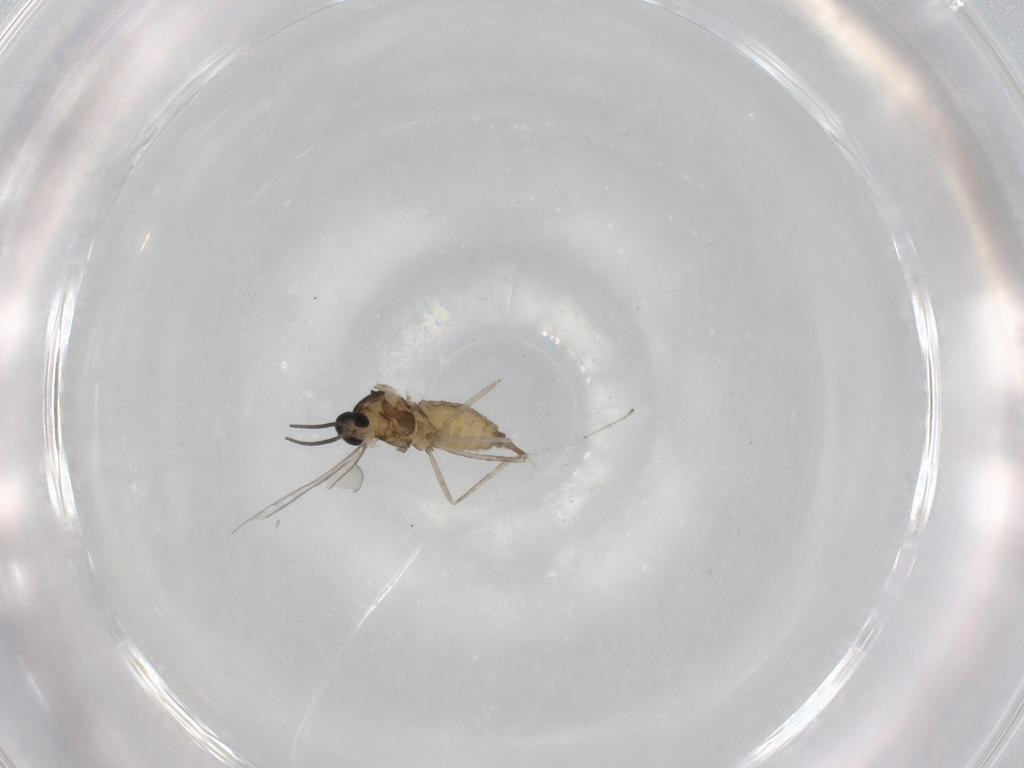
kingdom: Animalia
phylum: Arthropoda
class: Insecta
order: Diptera
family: Cecidomyiidae
